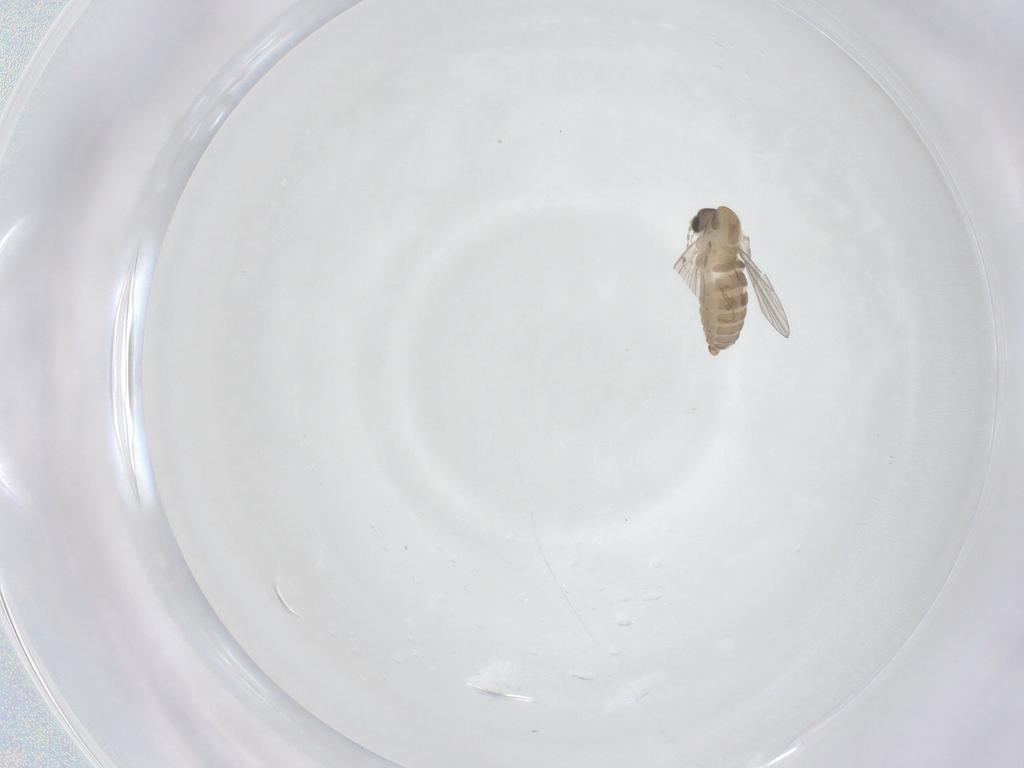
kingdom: Animalia
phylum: Arthropoda
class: Insecta
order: Diptera
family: Psychodidae
